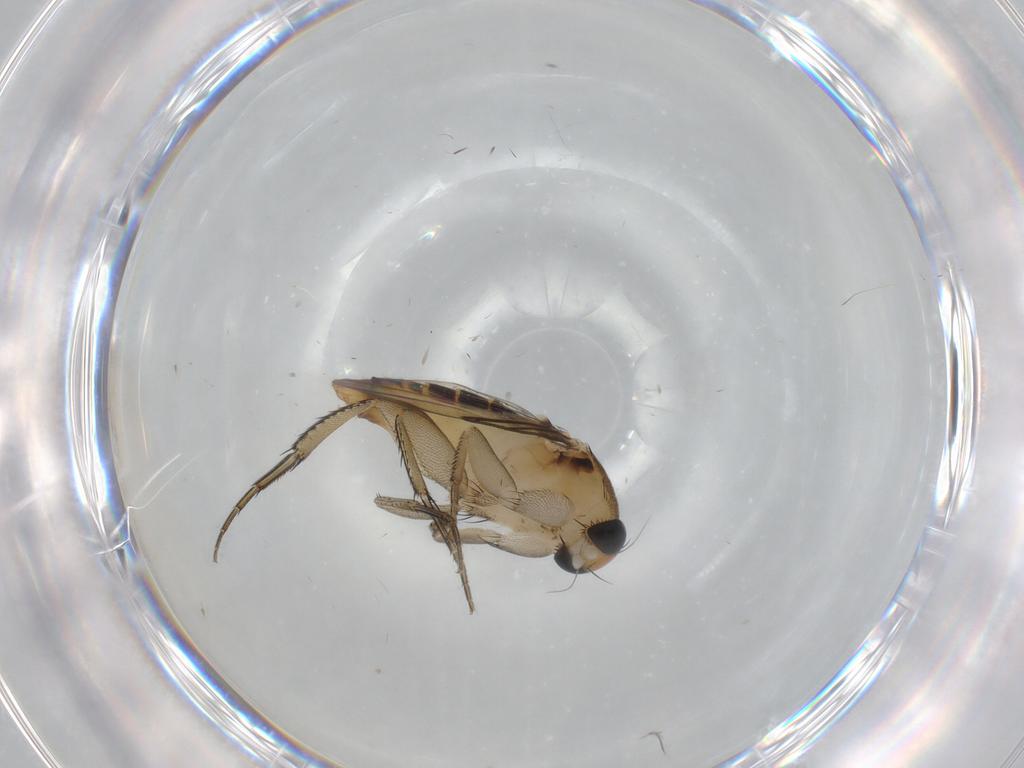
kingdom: Animalia
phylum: Arthropoda
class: Insecta
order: Diptera
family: Phoridae
